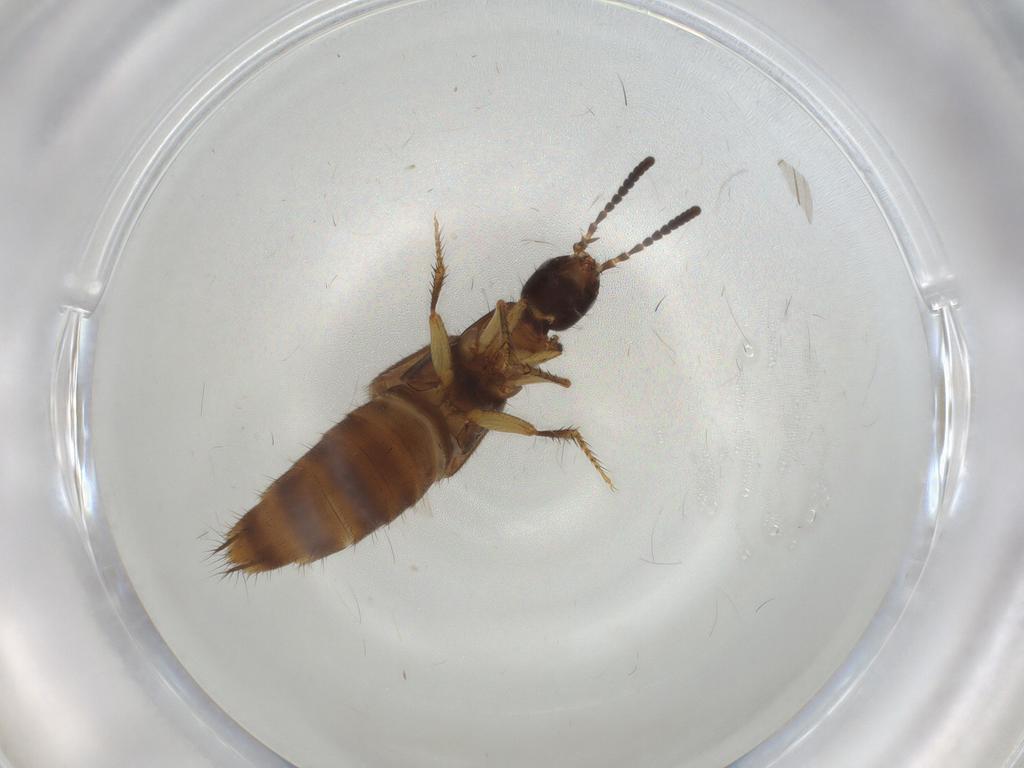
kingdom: Animalia
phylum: Arthropoda
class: Insecta
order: Coleoptera
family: Staphylinidae
